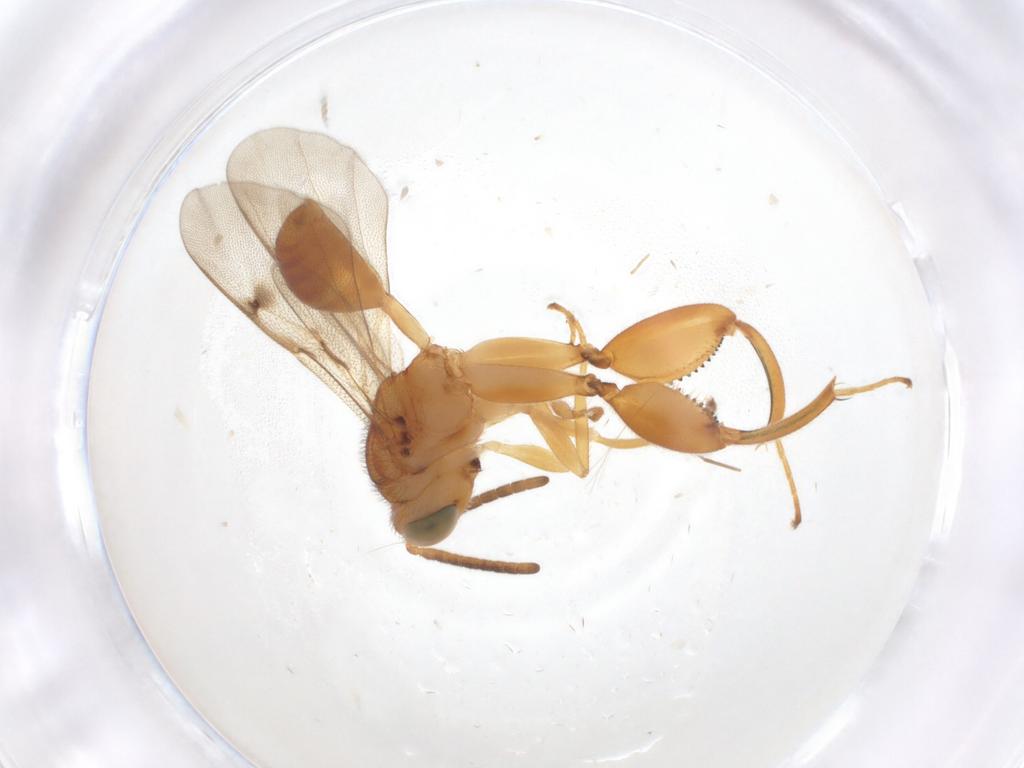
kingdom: Animalia
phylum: Arthropoda
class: Insecta
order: Hymenoptera
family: Chalcididae
